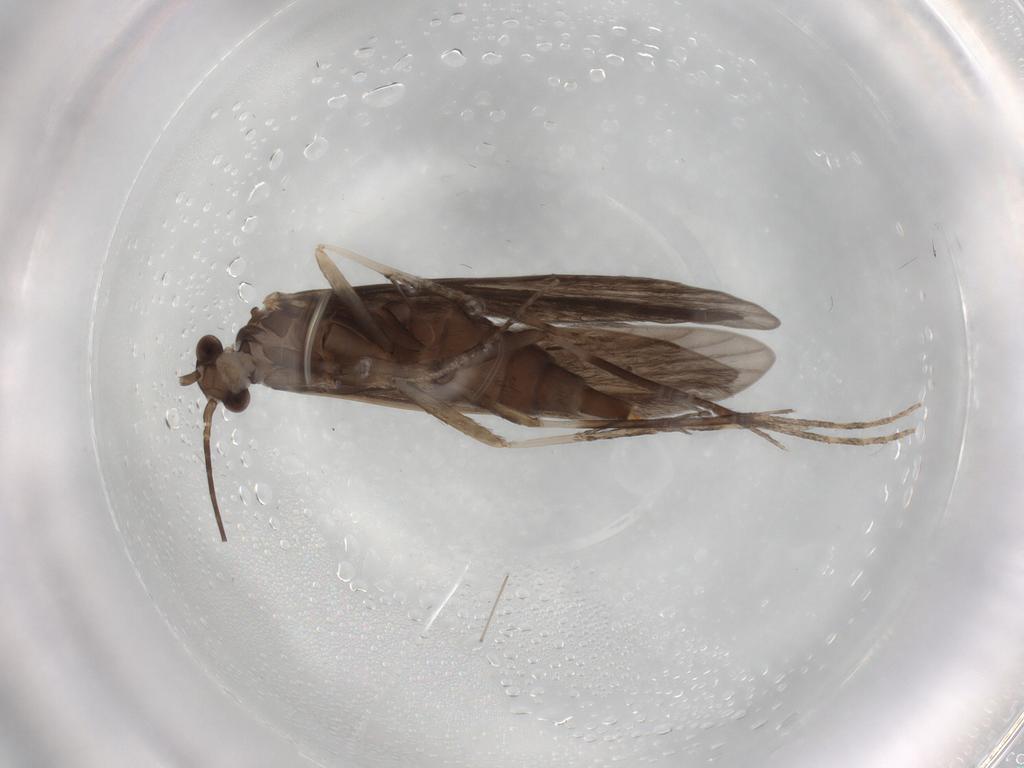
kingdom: Animalia
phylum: Arthropoda
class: Insecta
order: Trichoptera
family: Xiphocentronidae
